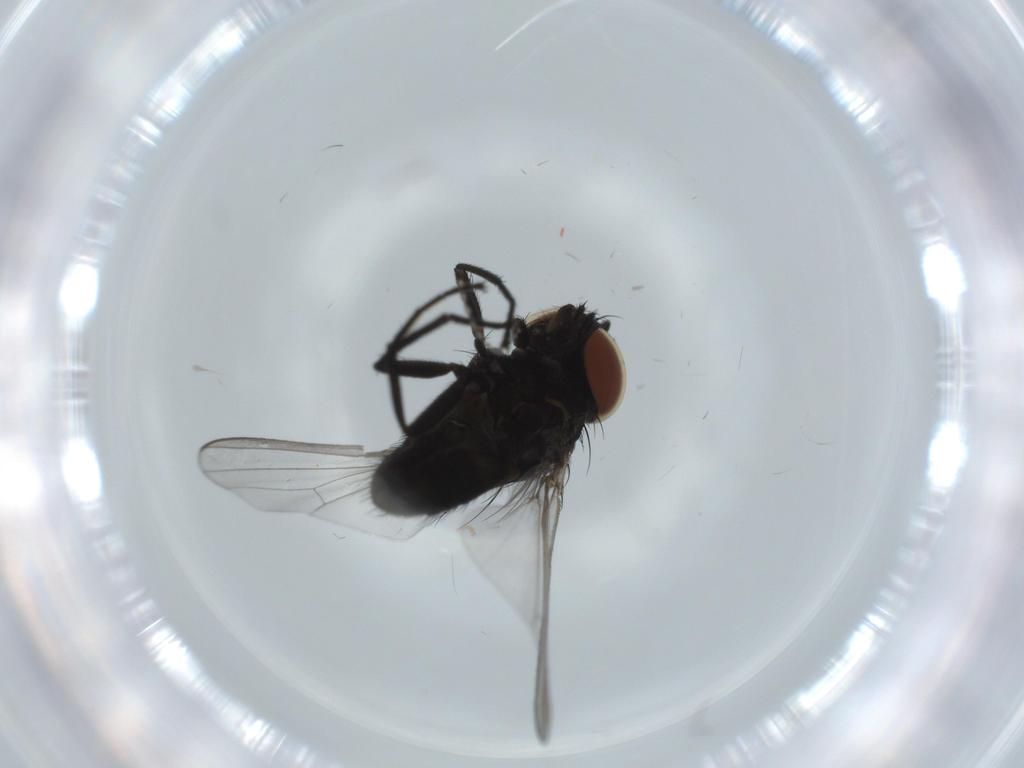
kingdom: Animalia
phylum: Arthropoda
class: Insecta
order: Diptera
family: Milichiidae
